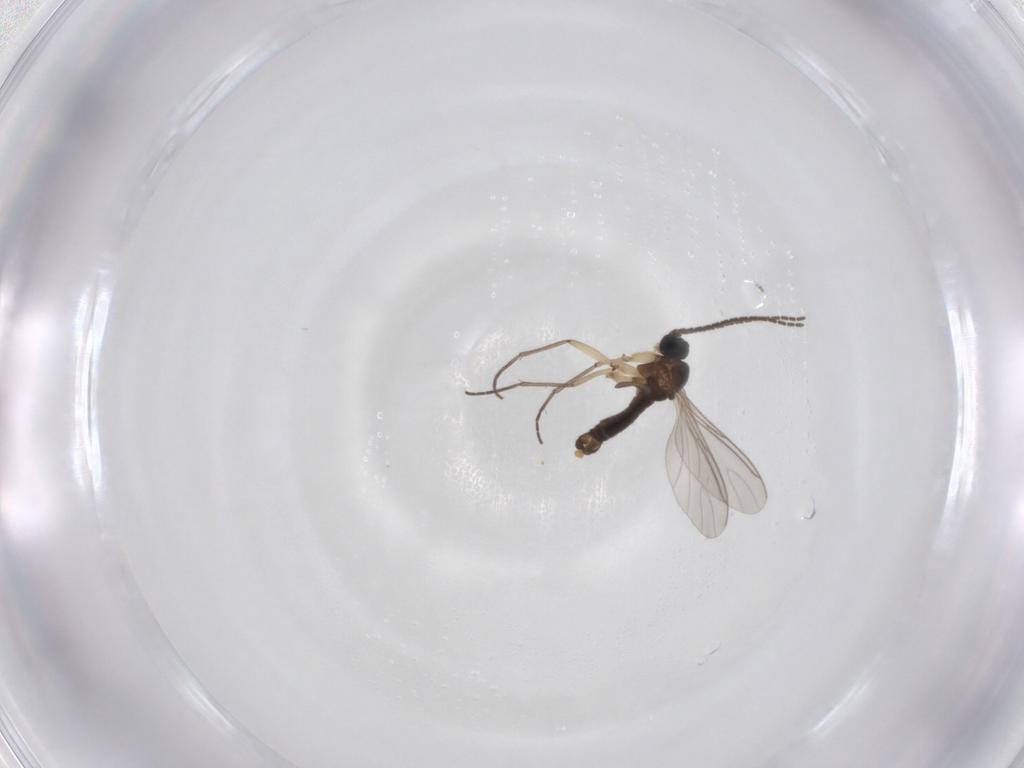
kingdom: Animalia
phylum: Arthropoda
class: Insecta
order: Diptera
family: Sciaridae
